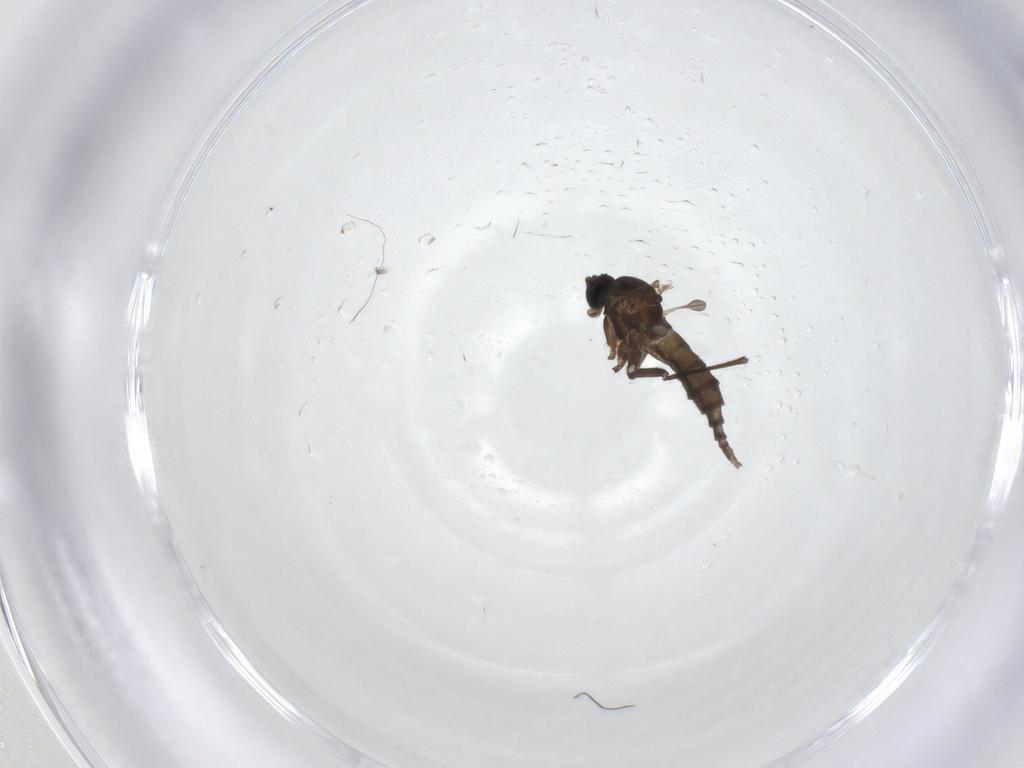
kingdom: Animalia
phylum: Arthropoda
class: Insecta
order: Diptera
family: Sciaridae
